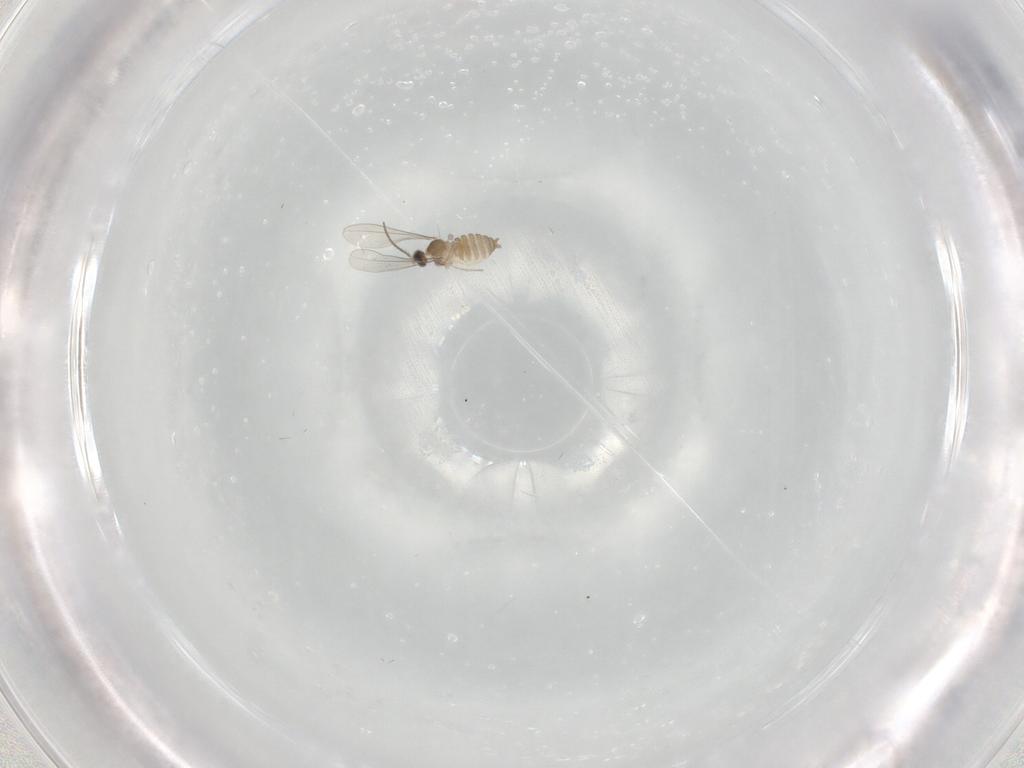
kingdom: Animalia
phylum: Arthropoda
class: Insecta
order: Diptera
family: Cecidomyiidae
